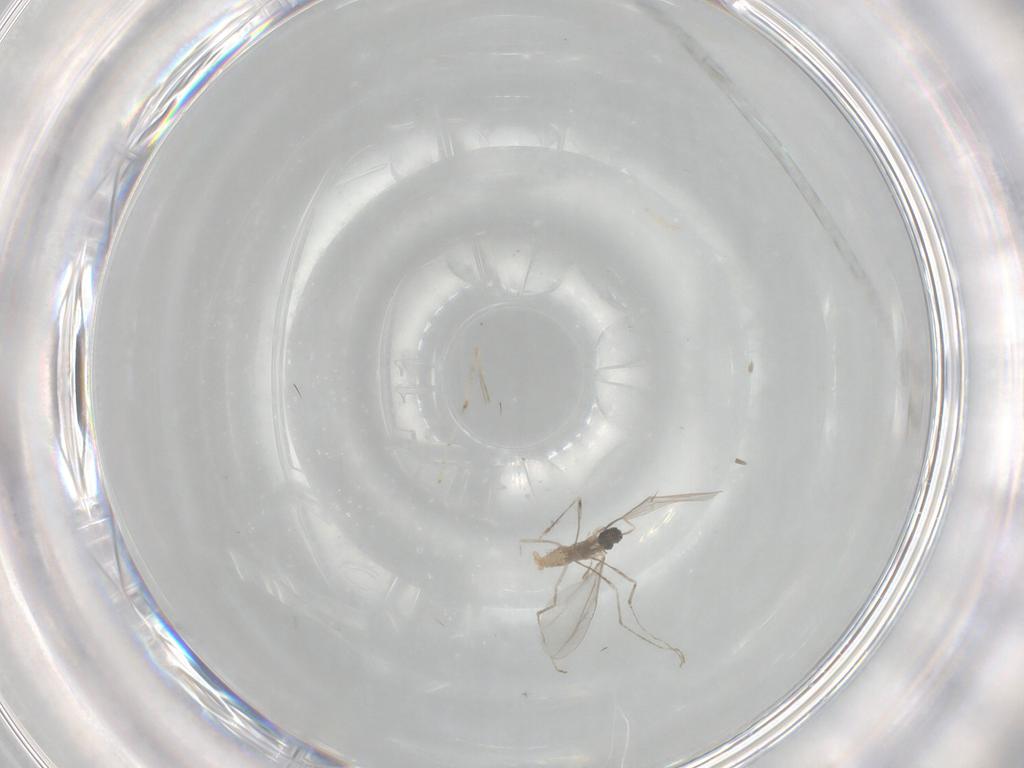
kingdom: Animalia
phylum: Arthropoda
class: Insecta
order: Diptera
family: Cecidomyiidae
